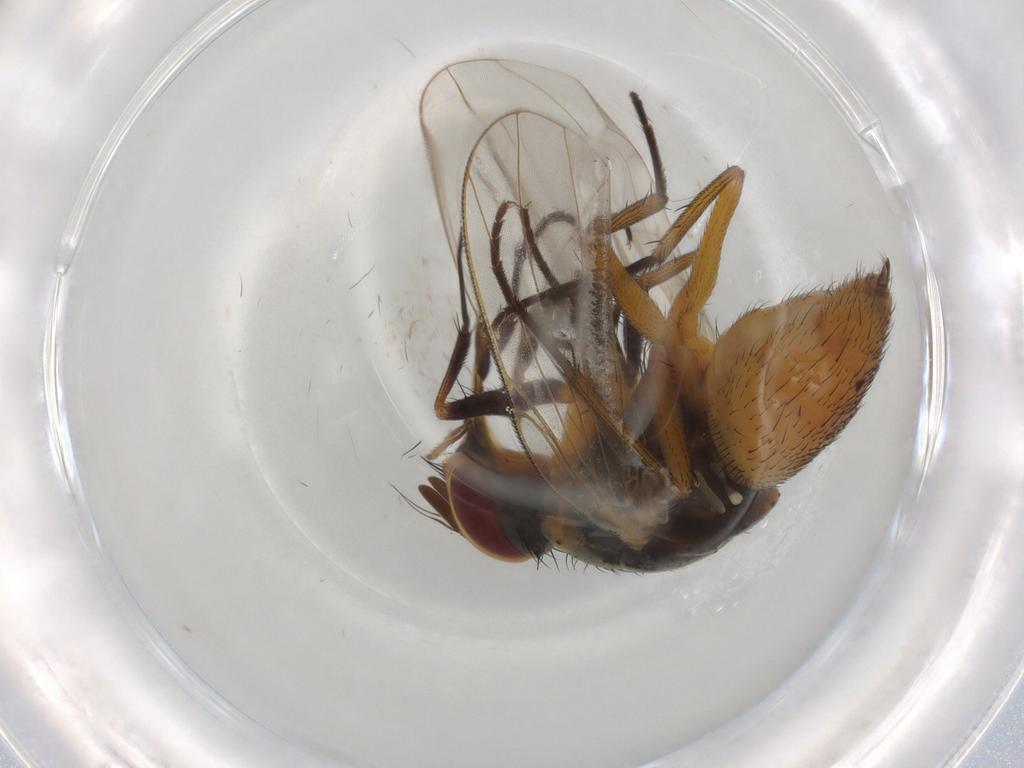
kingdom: Animalia
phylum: Arthropoda
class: Insecta
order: Diptera
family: Muscidae
